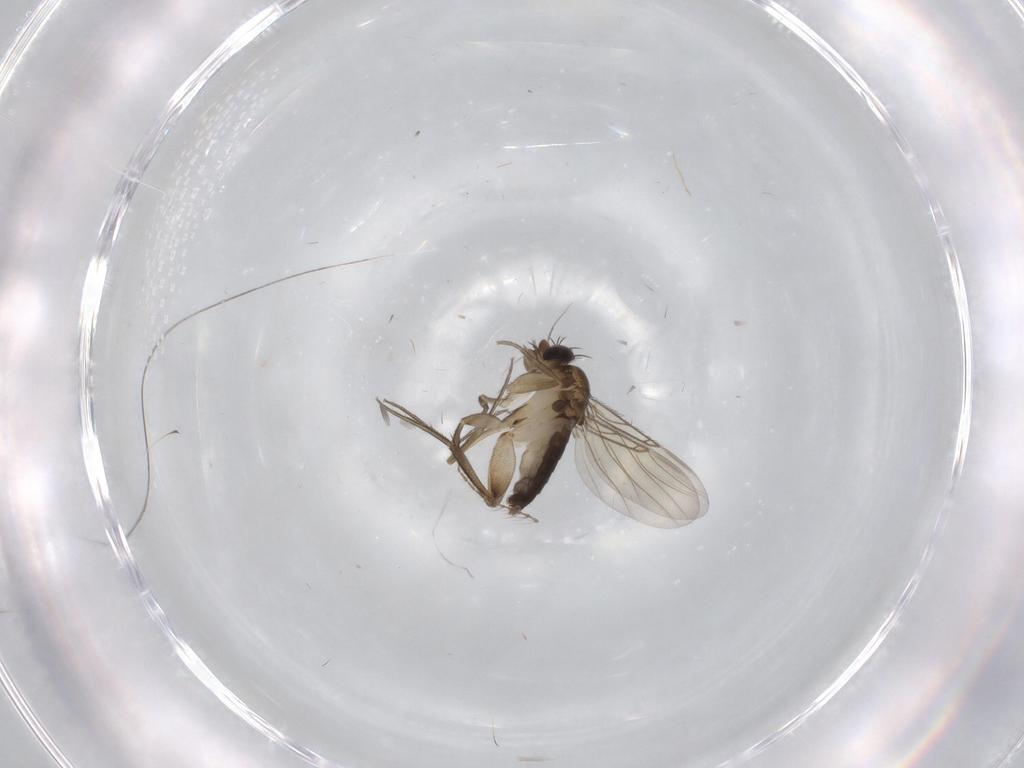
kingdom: Animalia
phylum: Arthropoda
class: Insecta
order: Diptera
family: Phoridae
